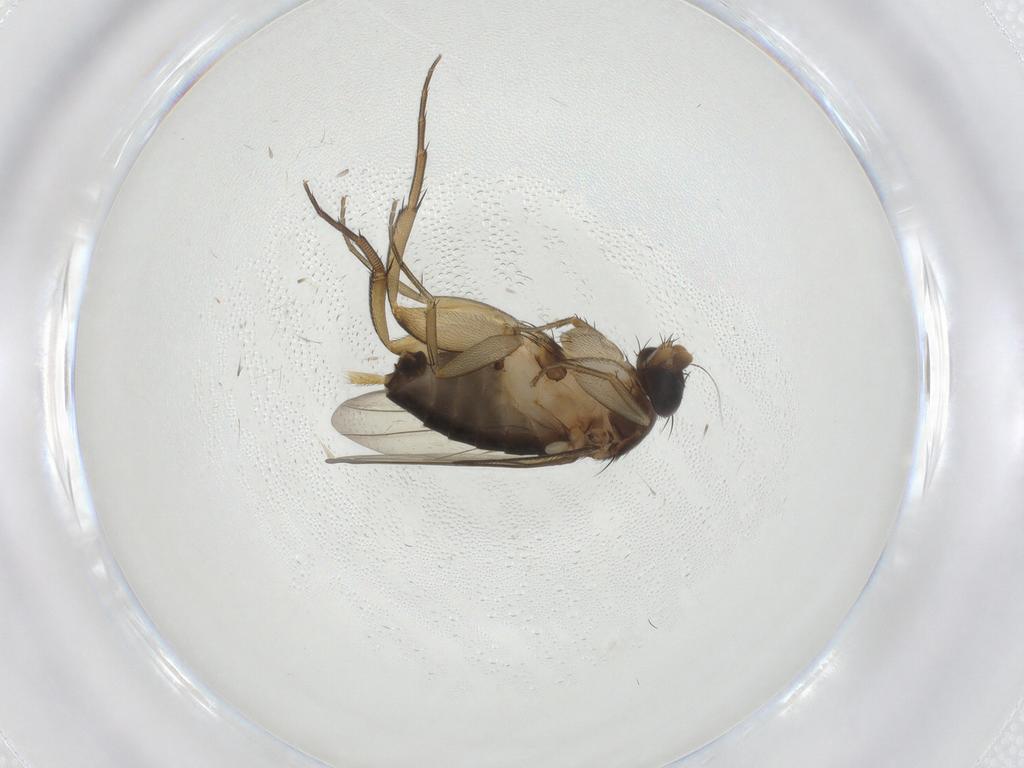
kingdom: Animalia
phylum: Arthropoda
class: Insecta
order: Diptera
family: Phoridae
